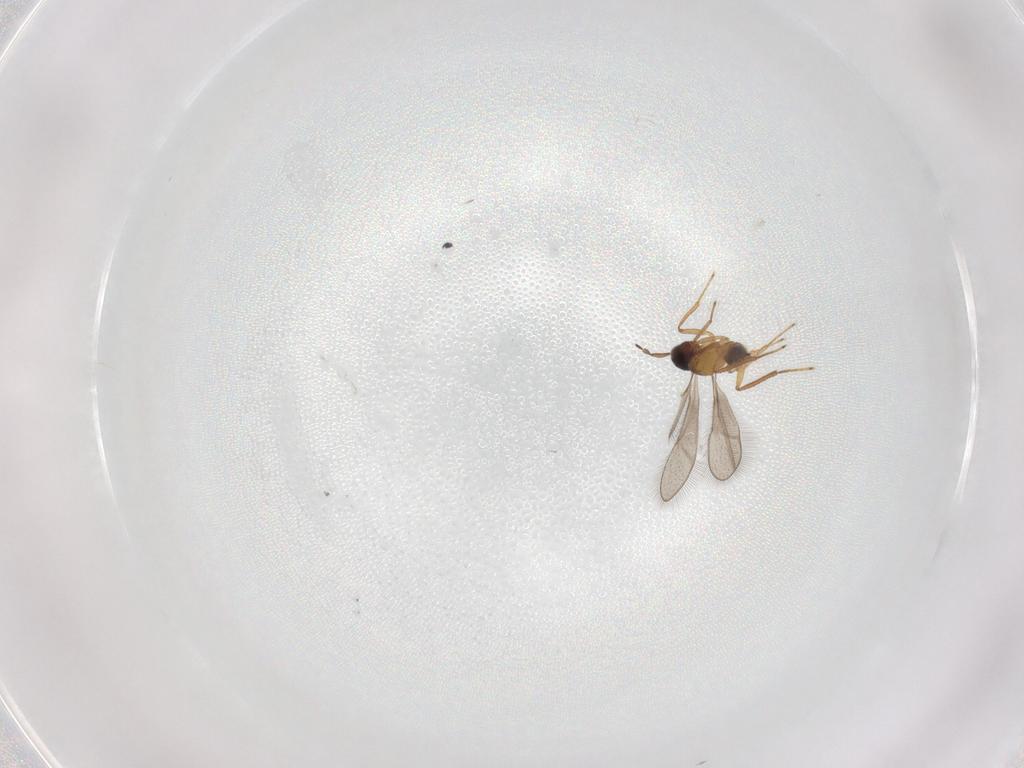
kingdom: Animalia
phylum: Arthropoda
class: Insecta
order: Hymenoptera
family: Mymaridae
